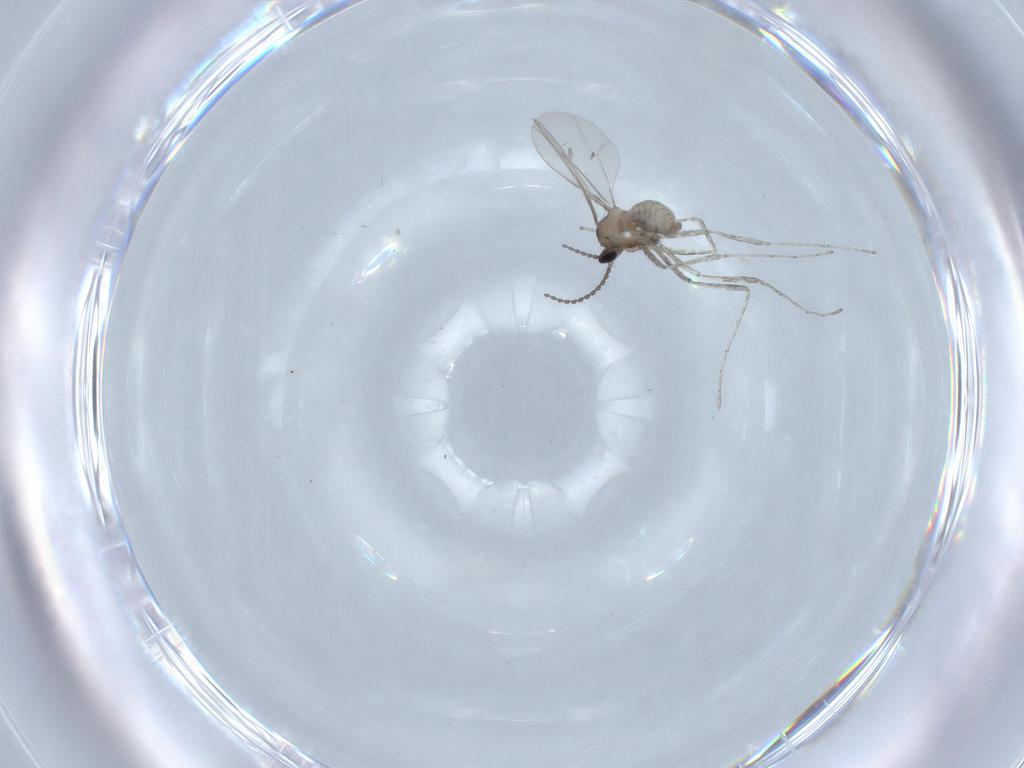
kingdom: Animalia
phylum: Arthropoda
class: Insecta
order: Diptera
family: Cecidomyiidae
